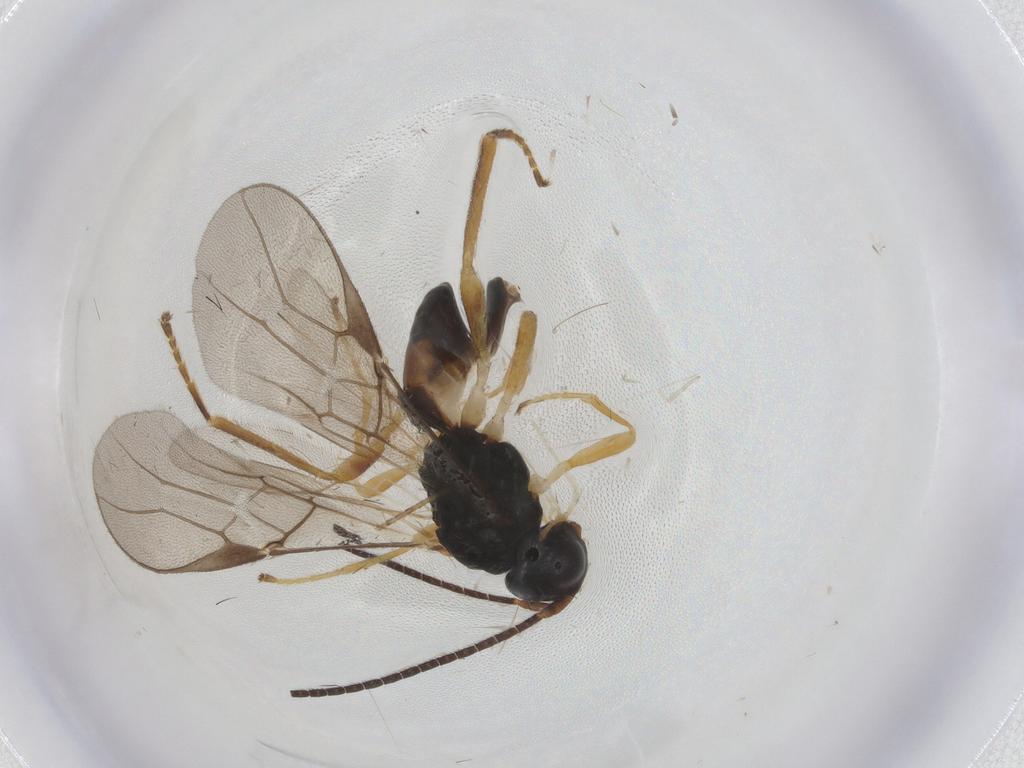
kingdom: Animalia
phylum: Arthropoda
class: Insecta
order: Hymenoptera
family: Braconidae
